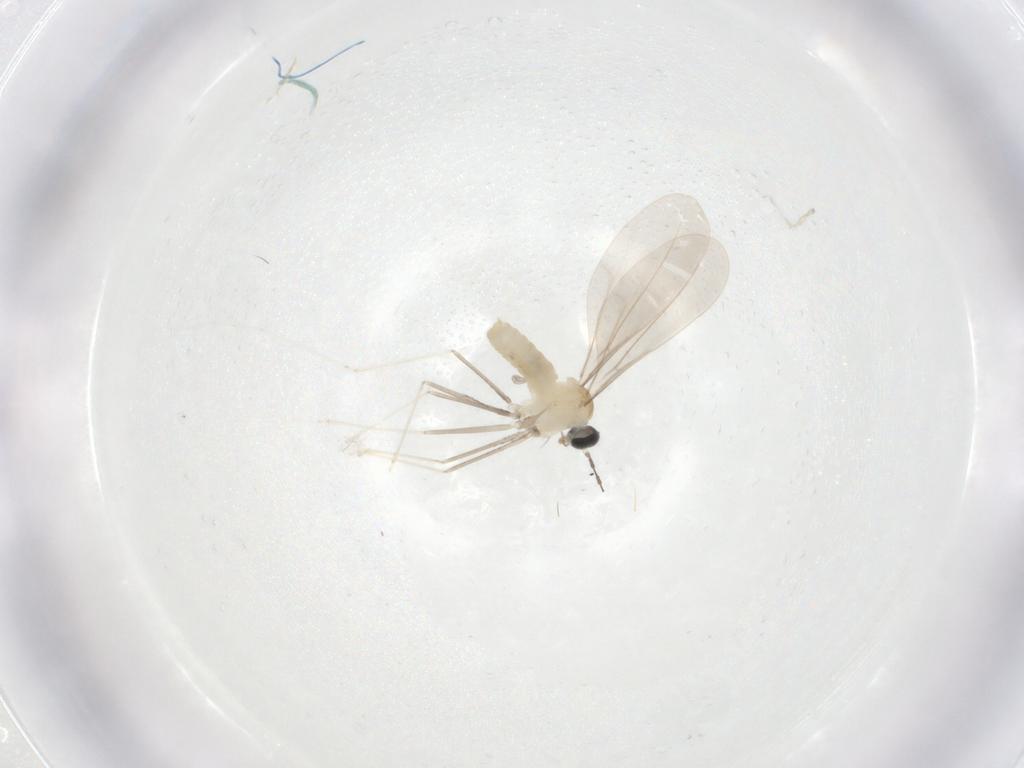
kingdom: Animalia
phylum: Arthropoda
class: Insecta
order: Diptera
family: Cecidomyiidae
